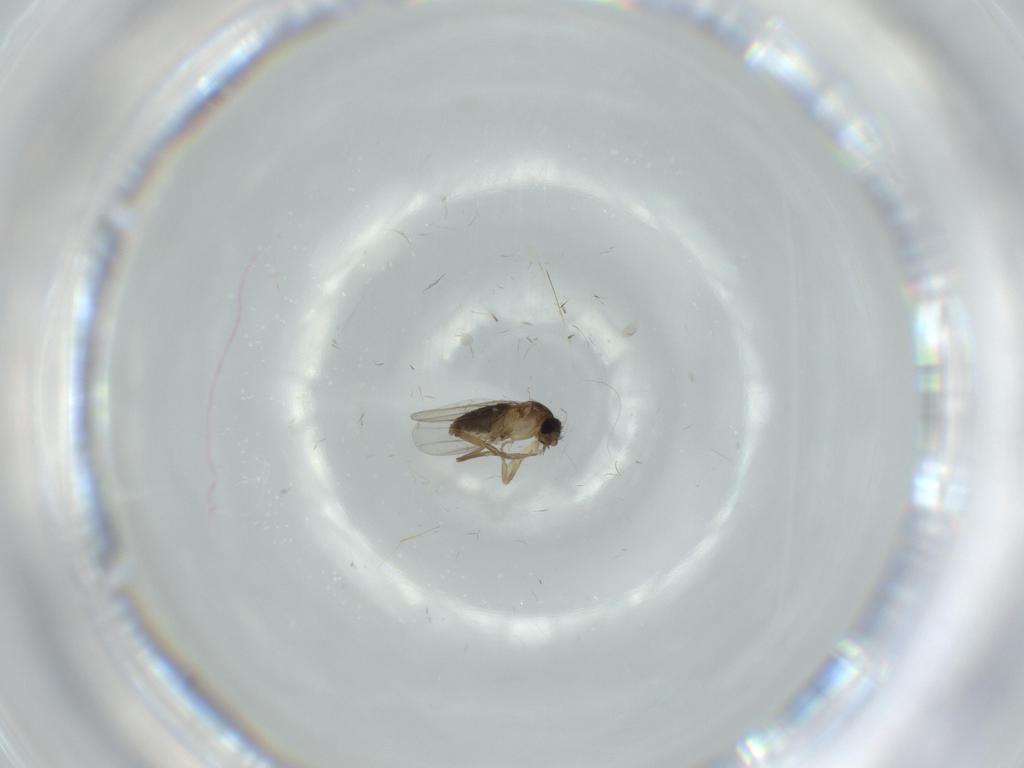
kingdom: Animalia
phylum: Arthropoda
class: Insecta
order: Diptera
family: Phoridae
